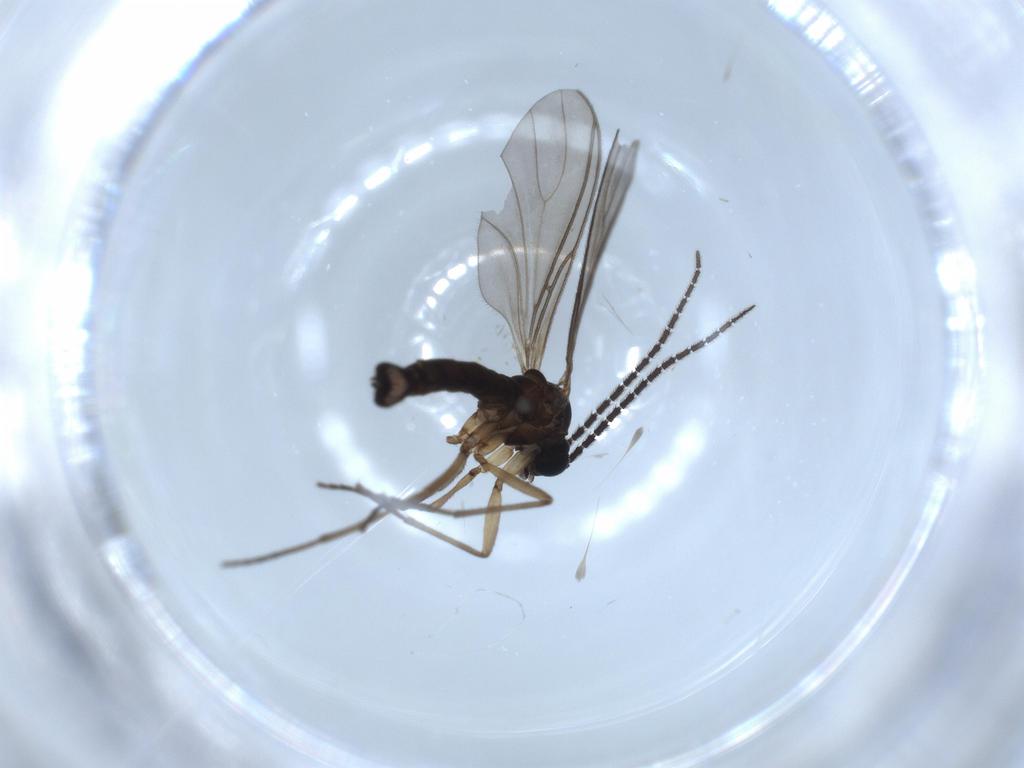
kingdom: Animalia
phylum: Arthropoda
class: Insecta
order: Diptera
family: Sciaridae
